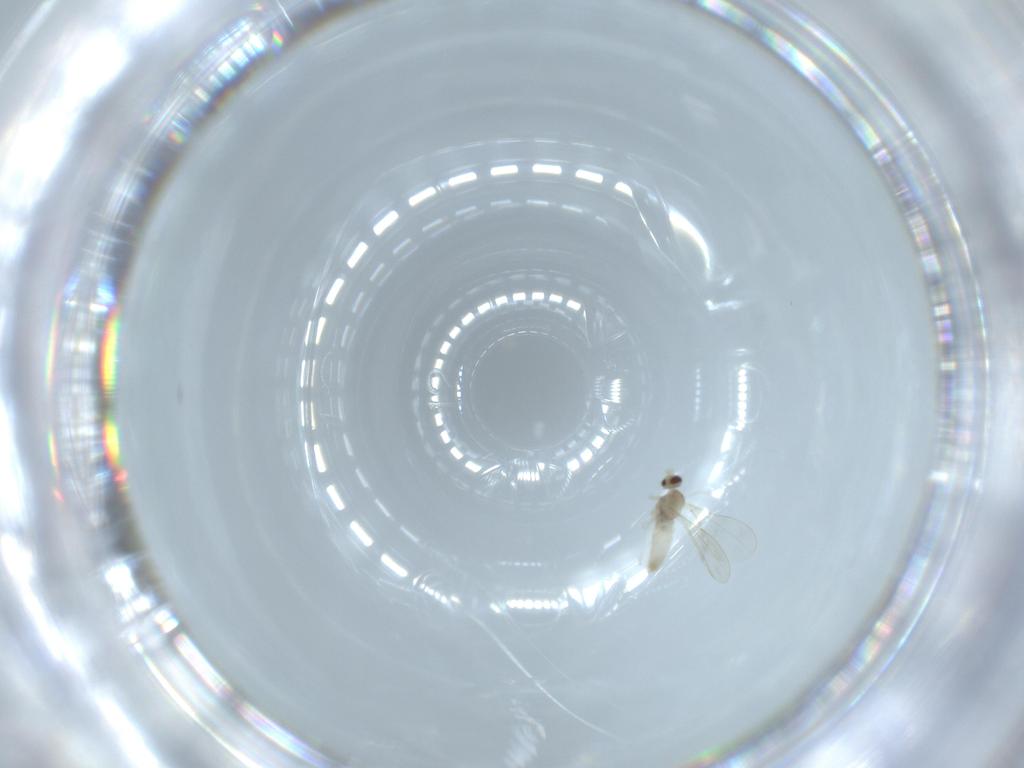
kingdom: Animalia
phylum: Arthropoda
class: Insecta
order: Diptera
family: Cecidomyiidae
